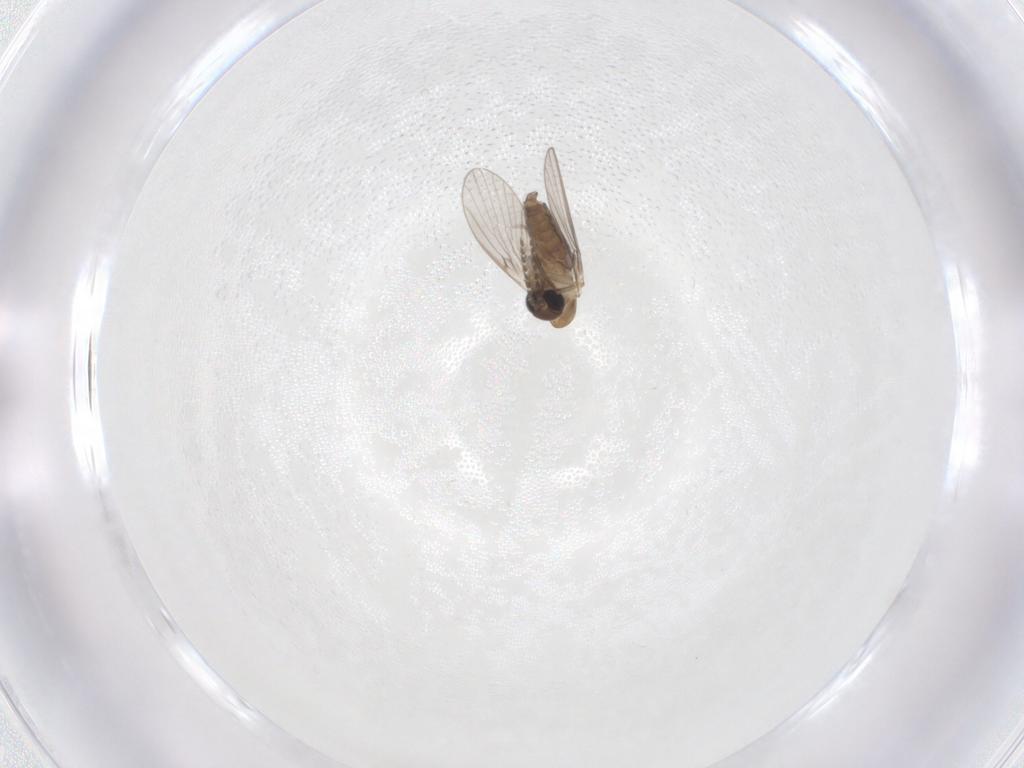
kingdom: Animalia
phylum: Arthropoda
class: Insecta
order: Diptera
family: Psychodidae
